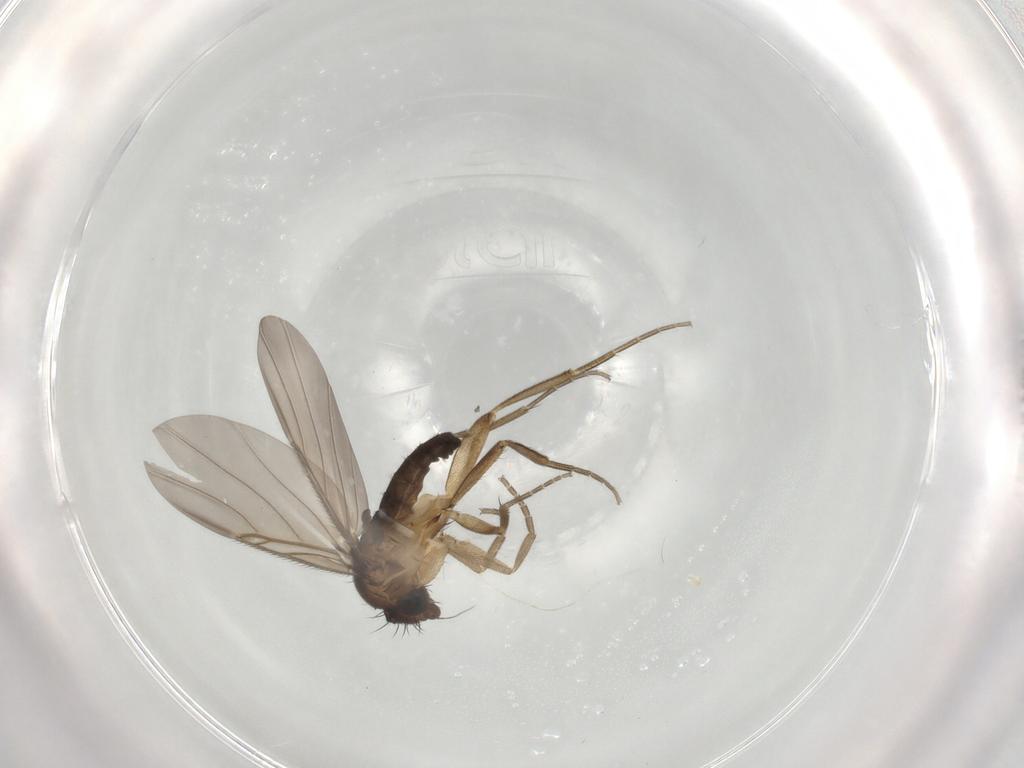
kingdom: Animalia
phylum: Arthropoda
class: Insecta
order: Diptera
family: Phoridae
